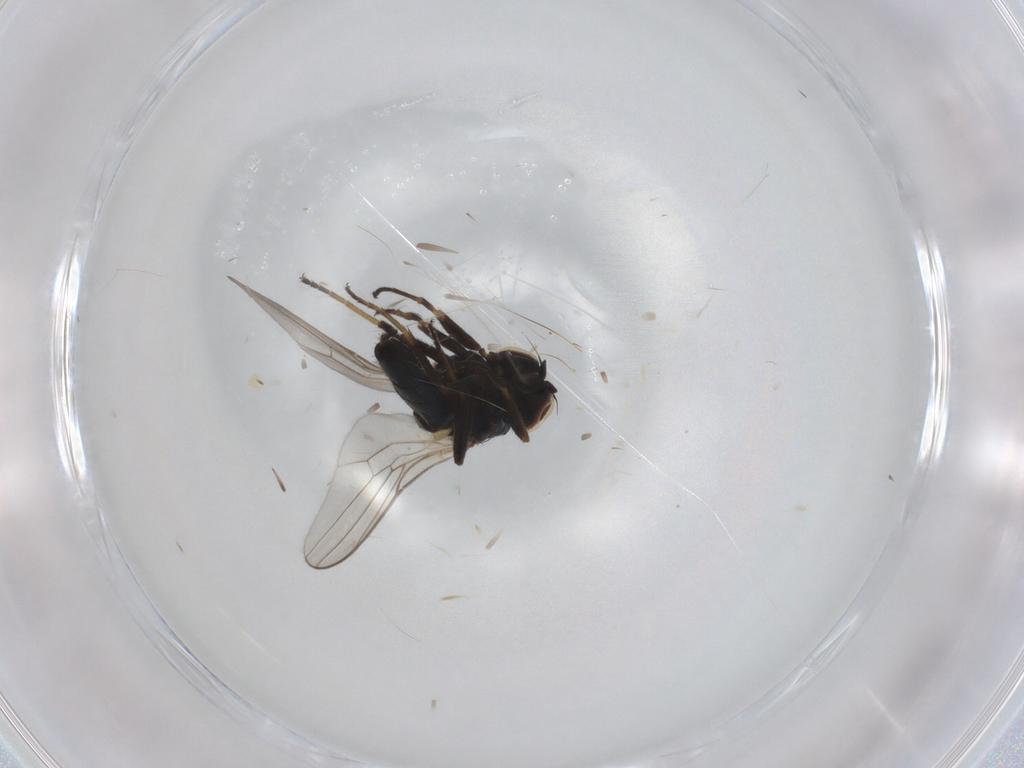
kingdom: Animalia
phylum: Arthropoda
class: Insecta
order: Diptera
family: Chloropidae
